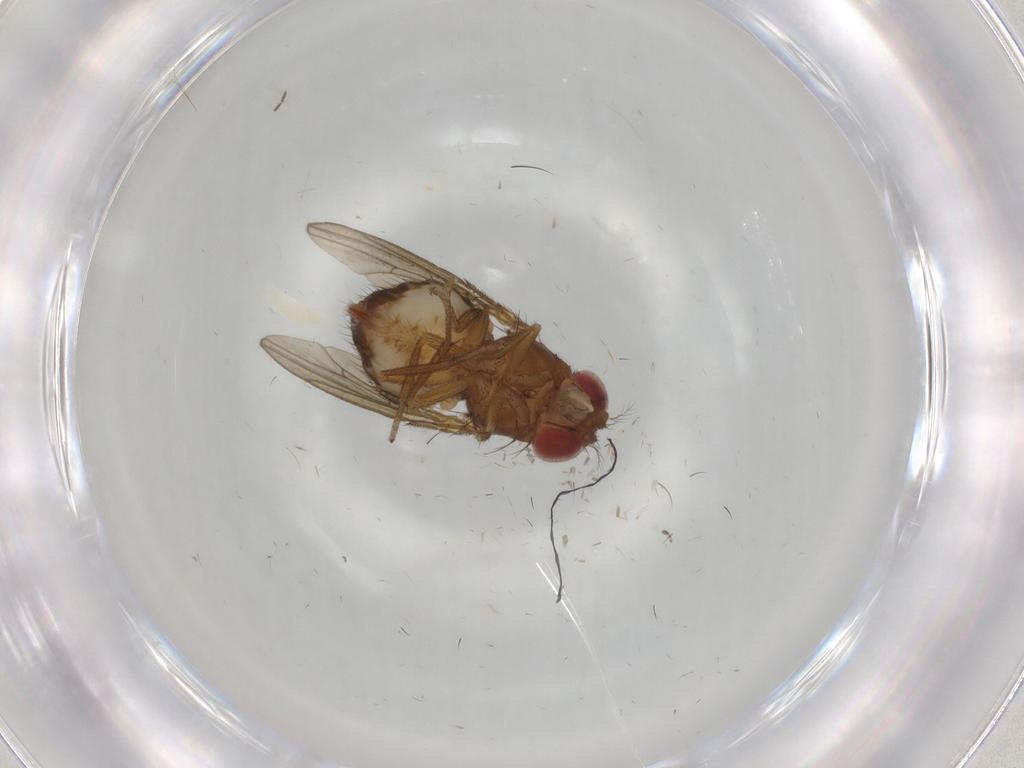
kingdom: Animalia
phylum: Arthropoda
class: Insecta
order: Diptera
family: Drosophilidae
